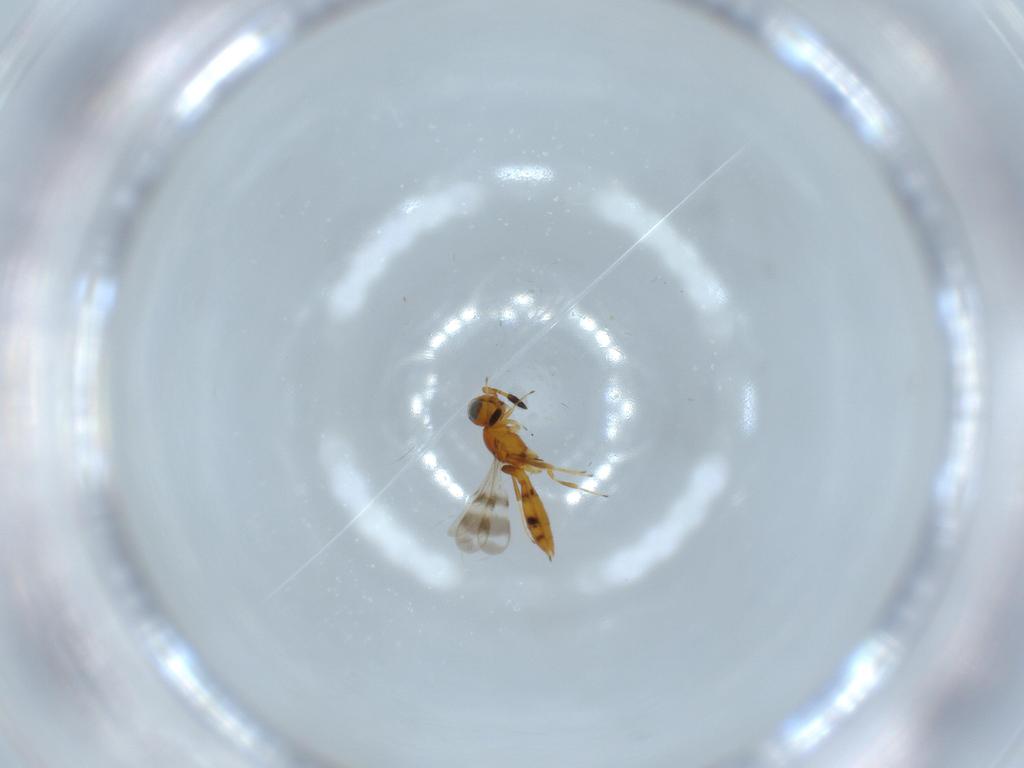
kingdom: Animalia
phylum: Arthropoda
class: Insecta
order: Hymenoptera
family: Scelionidae
